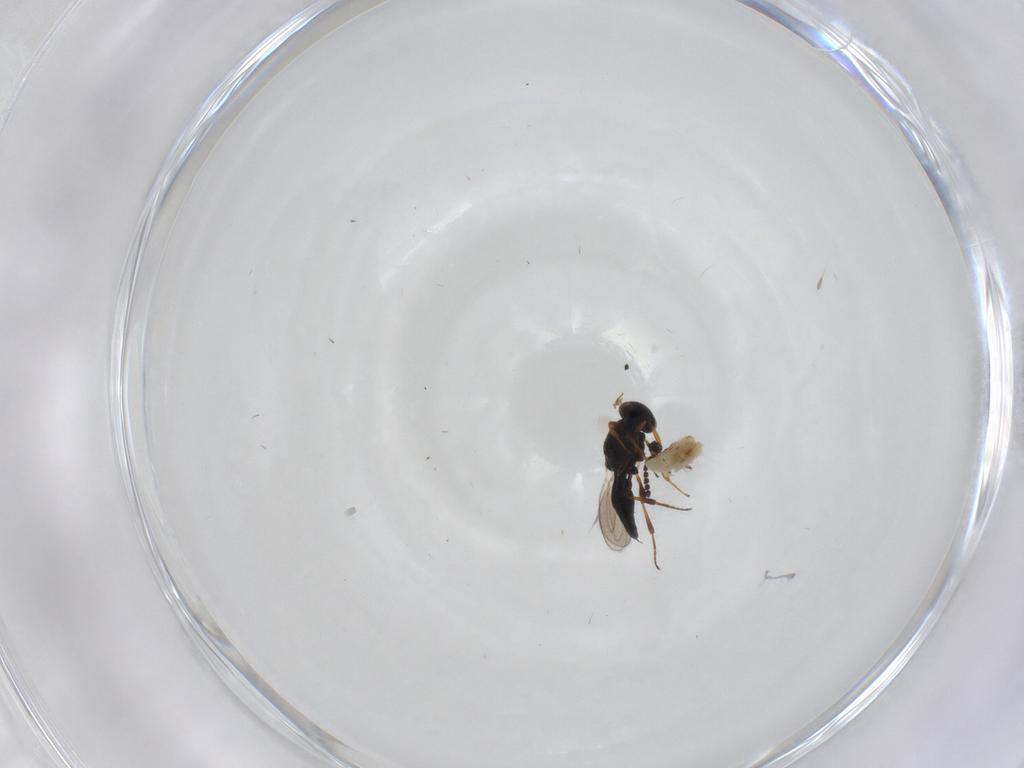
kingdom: Animalia
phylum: Arthropoda
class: Insecta
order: Hymenoptera
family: Platygastridae
